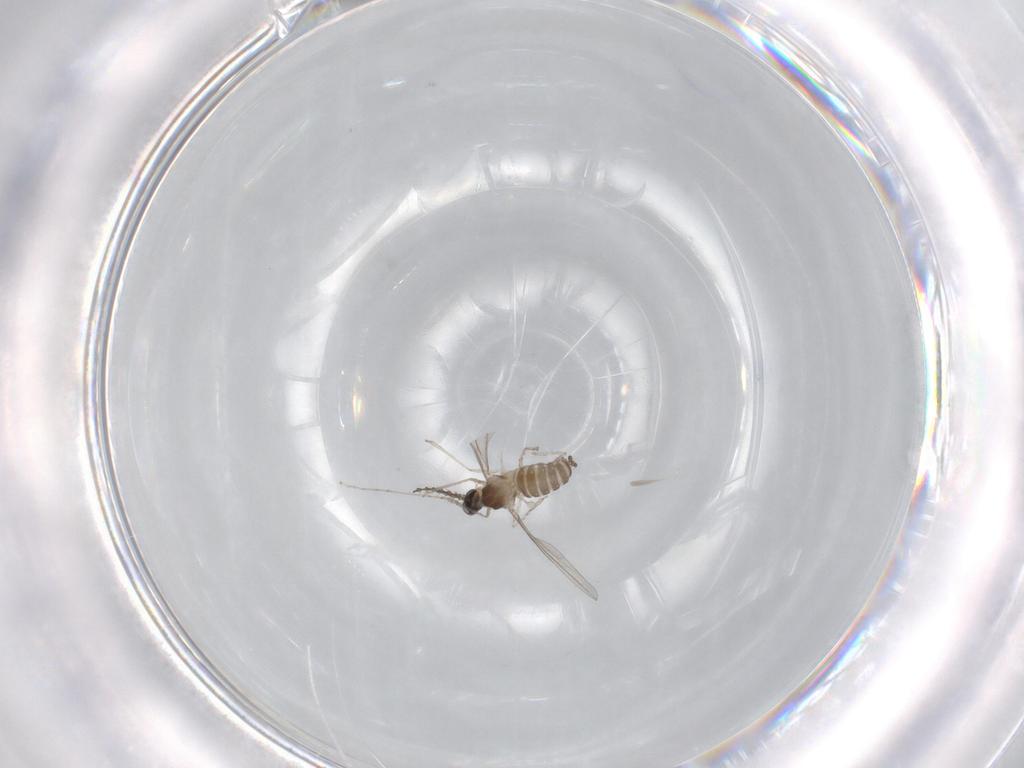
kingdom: Animalia
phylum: Arthropoda
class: Insecta
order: Diptera
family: Cecidomyiidae
